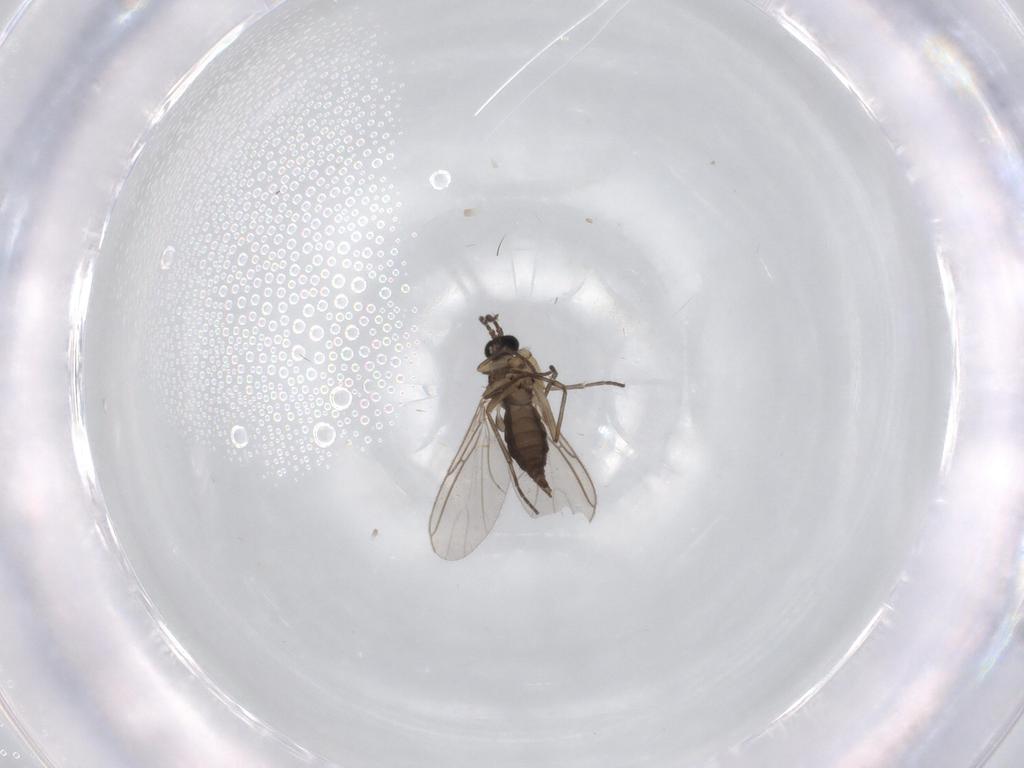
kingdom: Animalia
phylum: Arthropoda
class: Insecta
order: Diptera
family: Sciaridae
